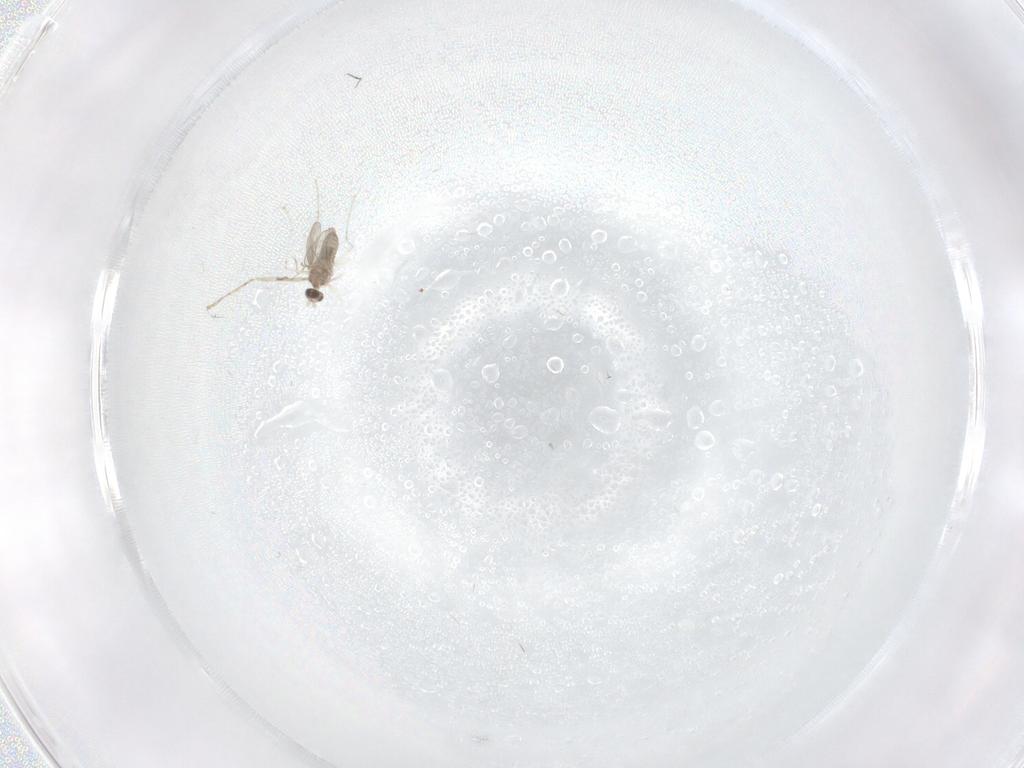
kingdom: Animalia
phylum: Arthropoda
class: Insecta
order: Diptera
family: Cecidomyiidae
